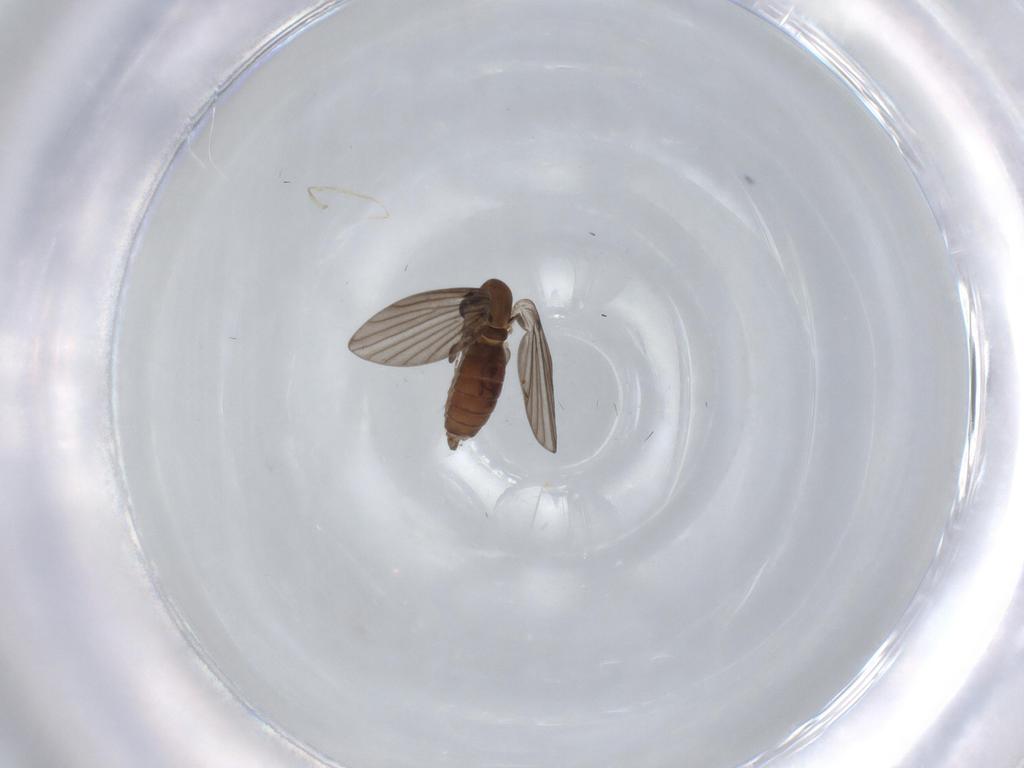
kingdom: Animalia
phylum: Arthropoda
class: Insecta
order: Diptera
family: Psychodidae
